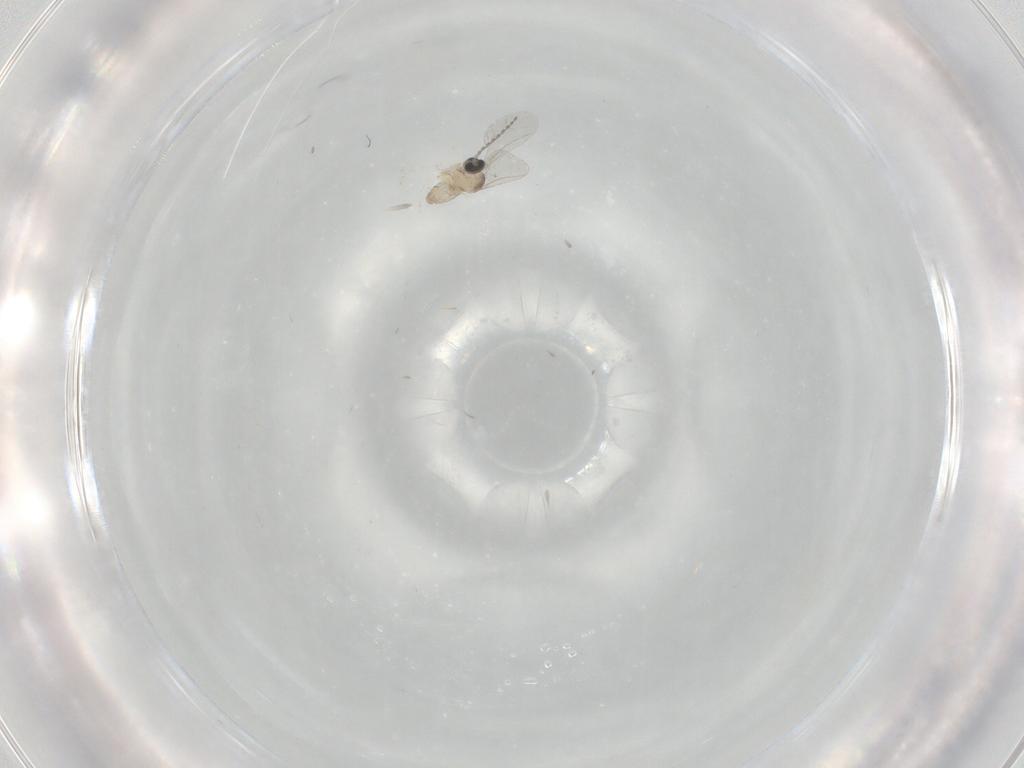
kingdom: Animalia
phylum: Arthropoda
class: Insecta
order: Diptera
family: Cecidomyiidae
